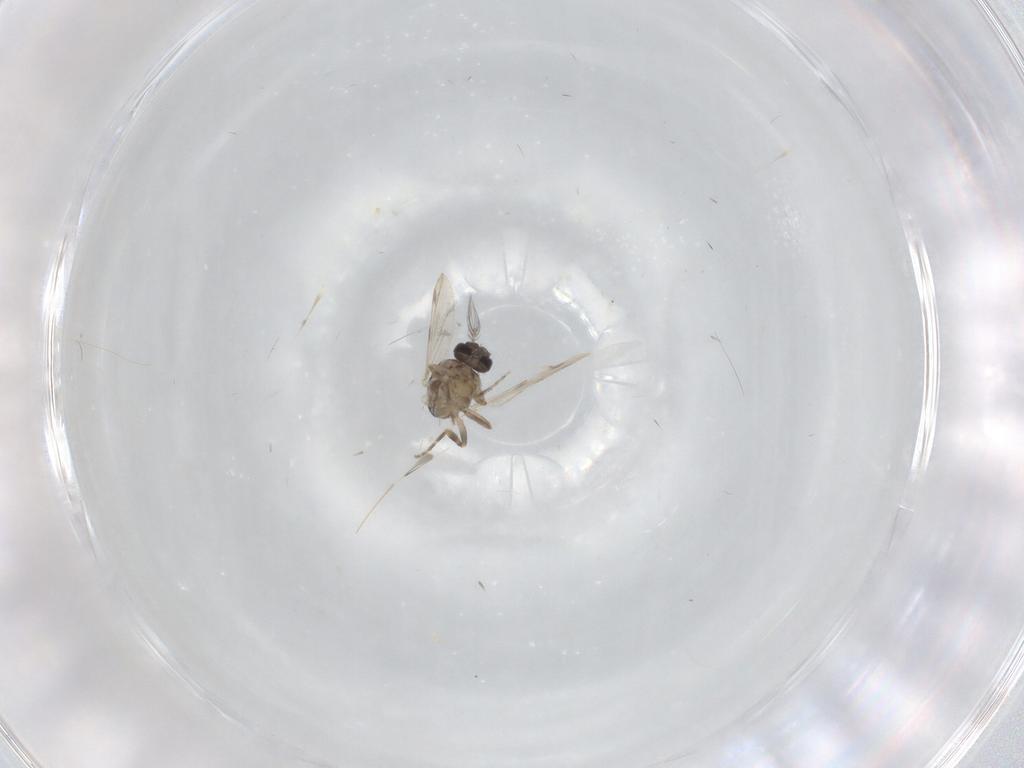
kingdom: Animalia
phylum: Arthropoda
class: Insecta
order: Diptera
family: Ceratopogonidae
